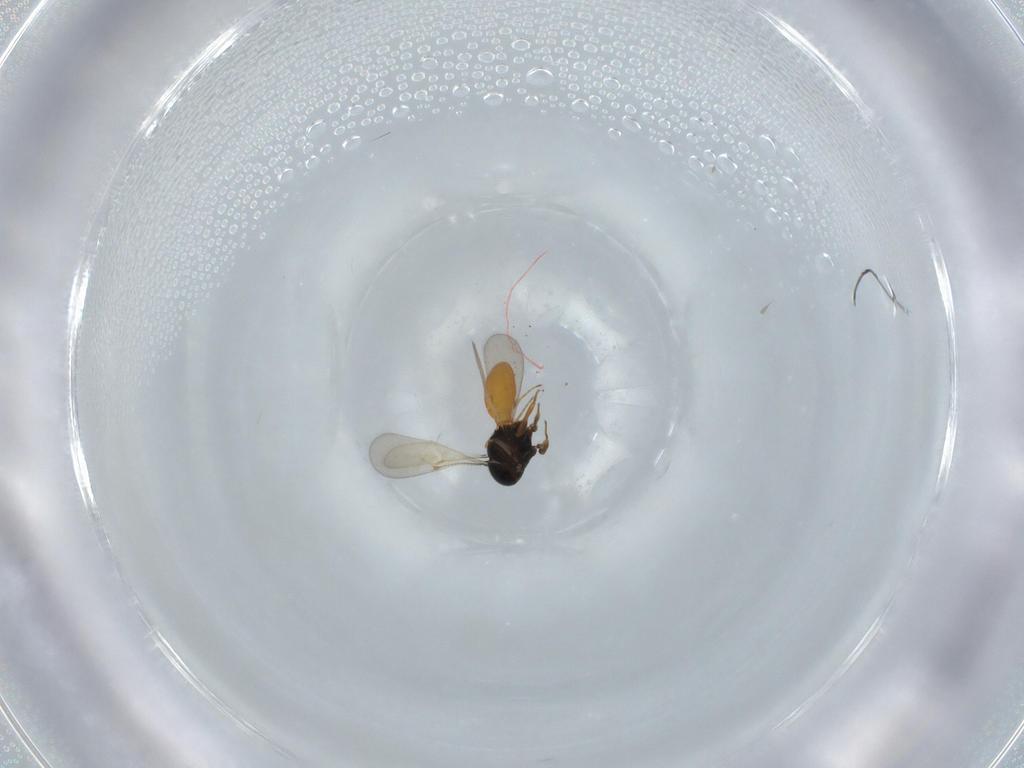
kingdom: Animalia
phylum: Arthropoda
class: Insecta
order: Hymenoptera
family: Scelionidae
